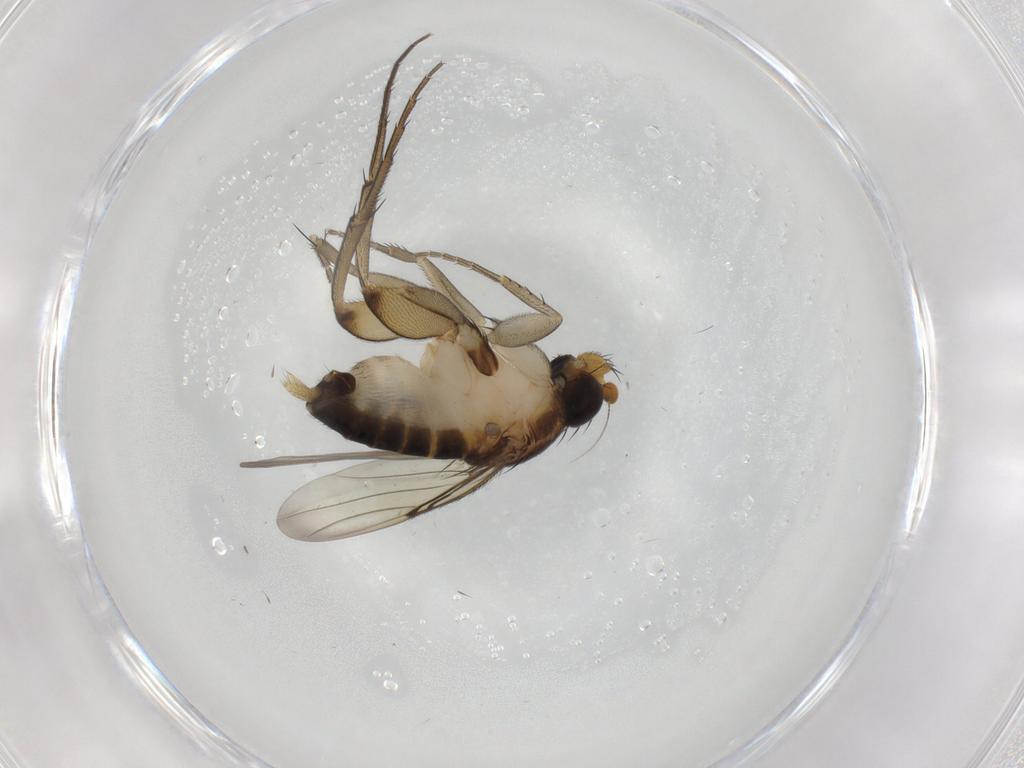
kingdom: Animalia
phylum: Arthropoda
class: Insecta
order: Diptera
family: Phoridae
